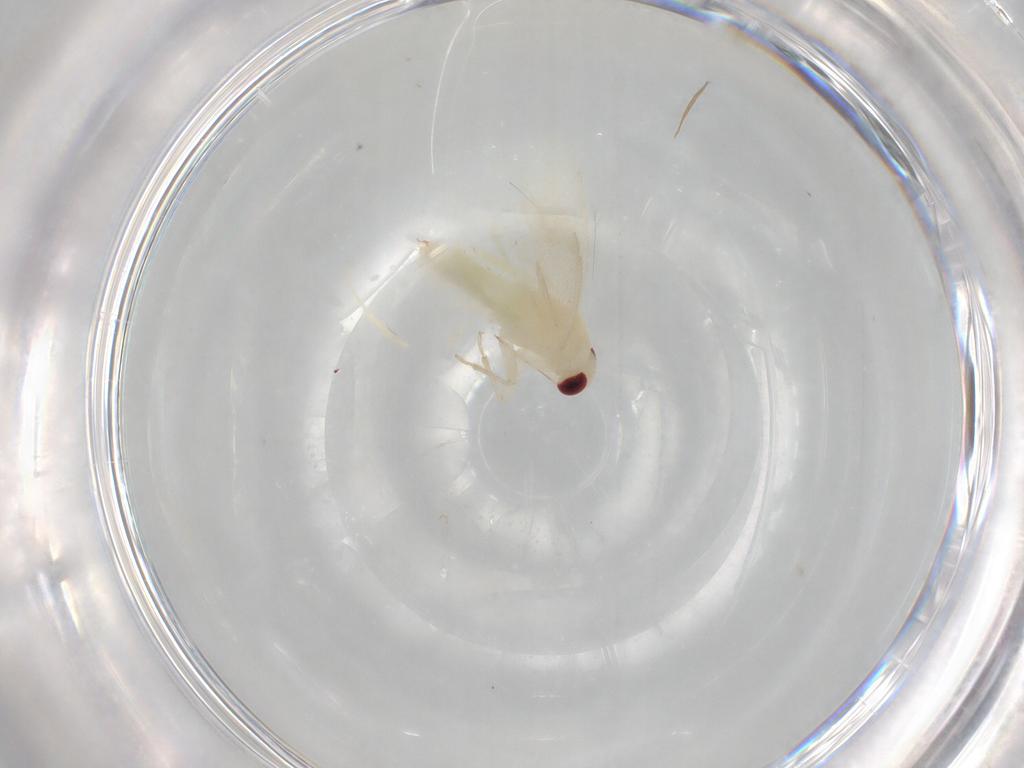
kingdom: Animalia
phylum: Arthropoda
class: Insecta
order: Hemiptera
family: Miridae
